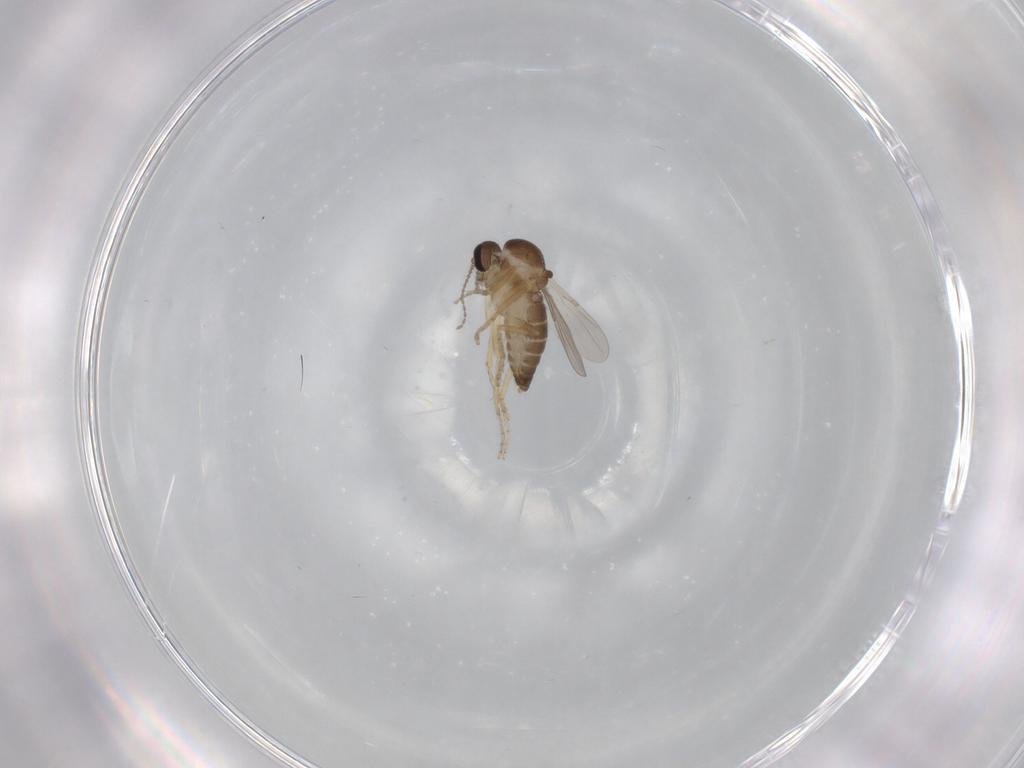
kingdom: Animalia
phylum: Arthropoda
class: Insecta
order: Diptera
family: Ceratopogonidae
